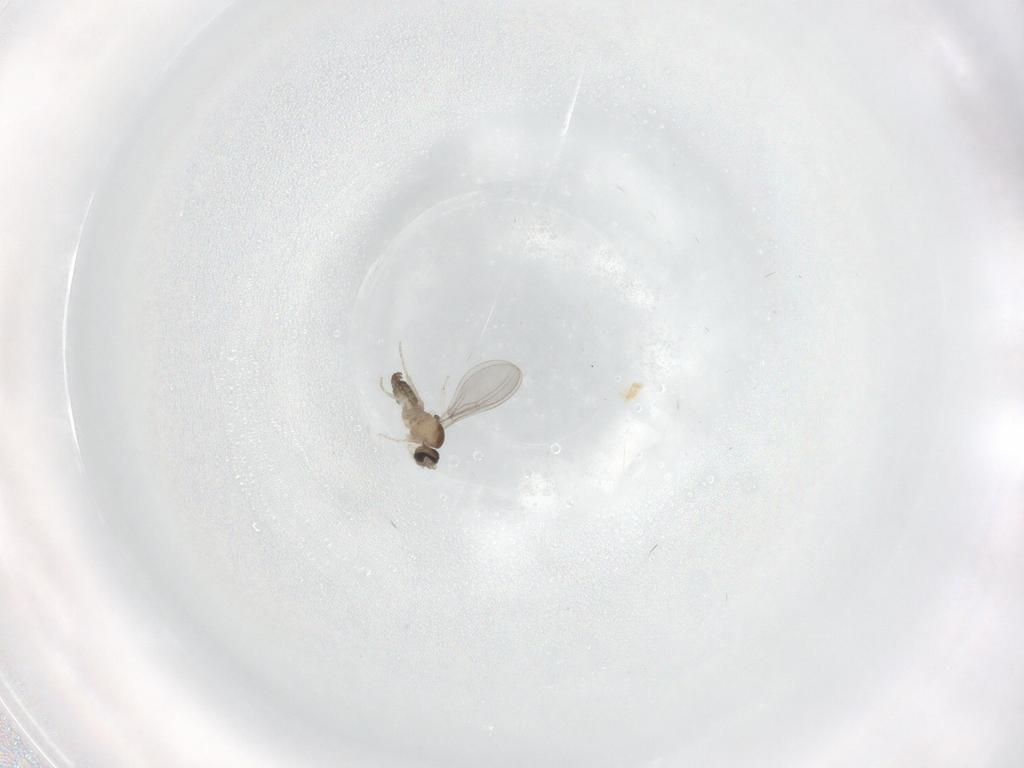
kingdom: Animalia
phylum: Arthropoda
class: Insecta
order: Diptera
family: Cecidomyiidae
